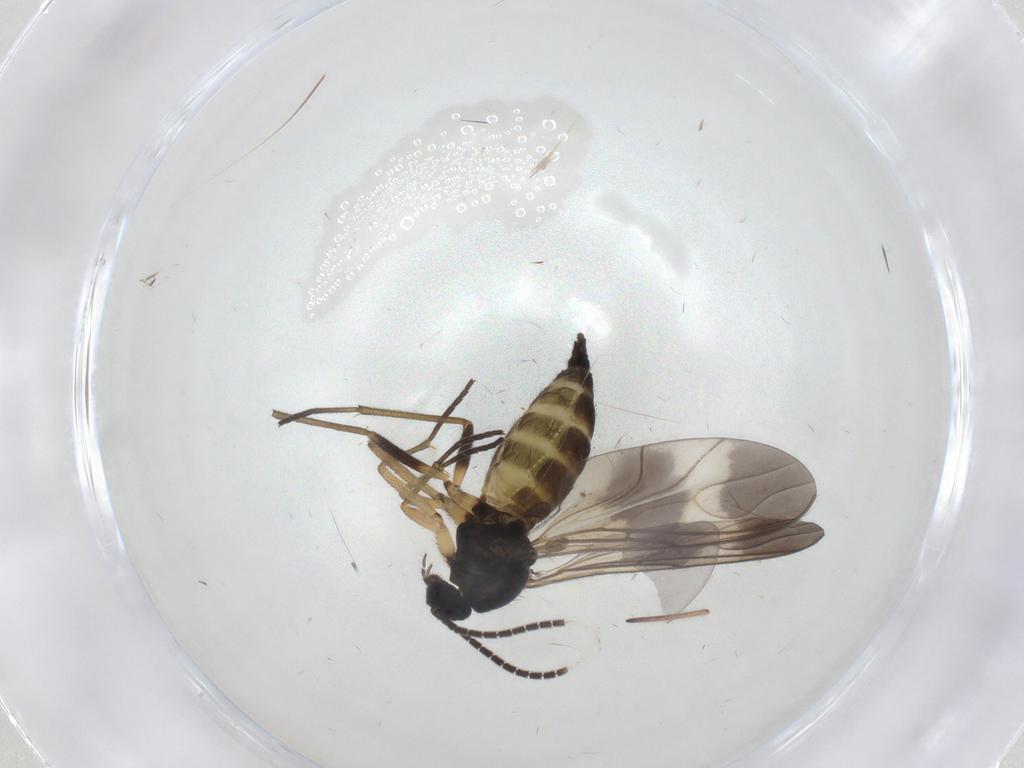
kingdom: Animalia
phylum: Arthropoda
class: Insecta
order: Diptera
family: Sciaridae
